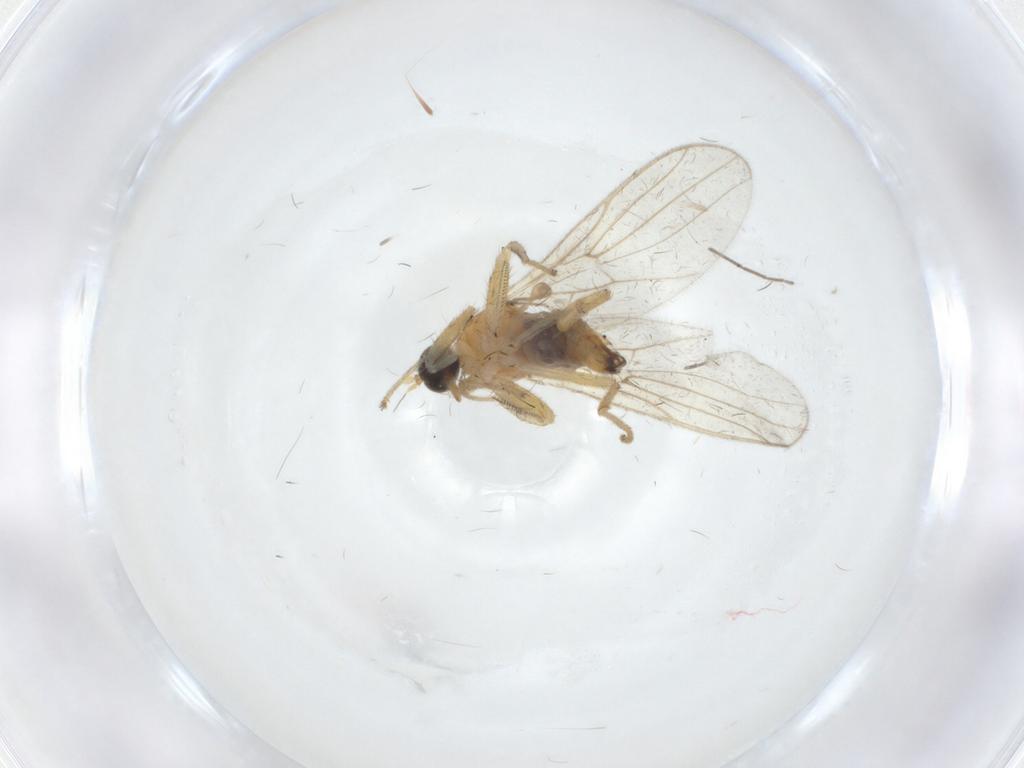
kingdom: Animalia
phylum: Arthropoda
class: Insecta
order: Diptera
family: Hybotidae
